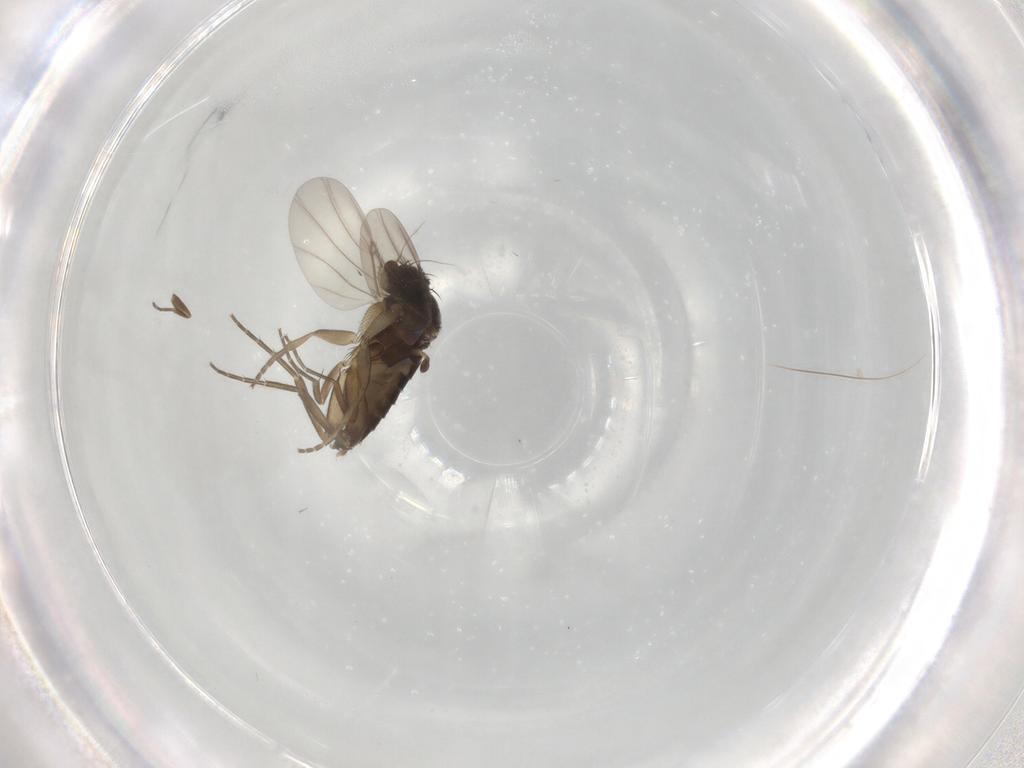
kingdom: Animalia
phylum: Arthropoda
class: Insecta
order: Diptera
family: Phoridae
